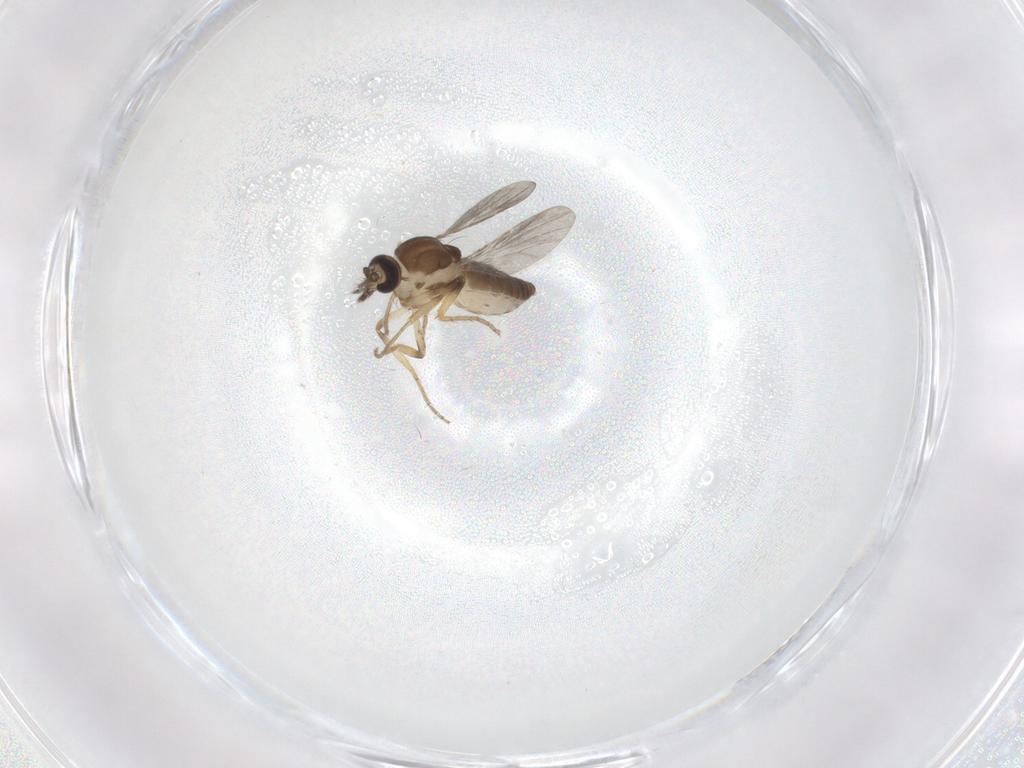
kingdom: Animalia
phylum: Arthropoda
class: Insecta
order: Diptera
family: Ceratopogonidae
